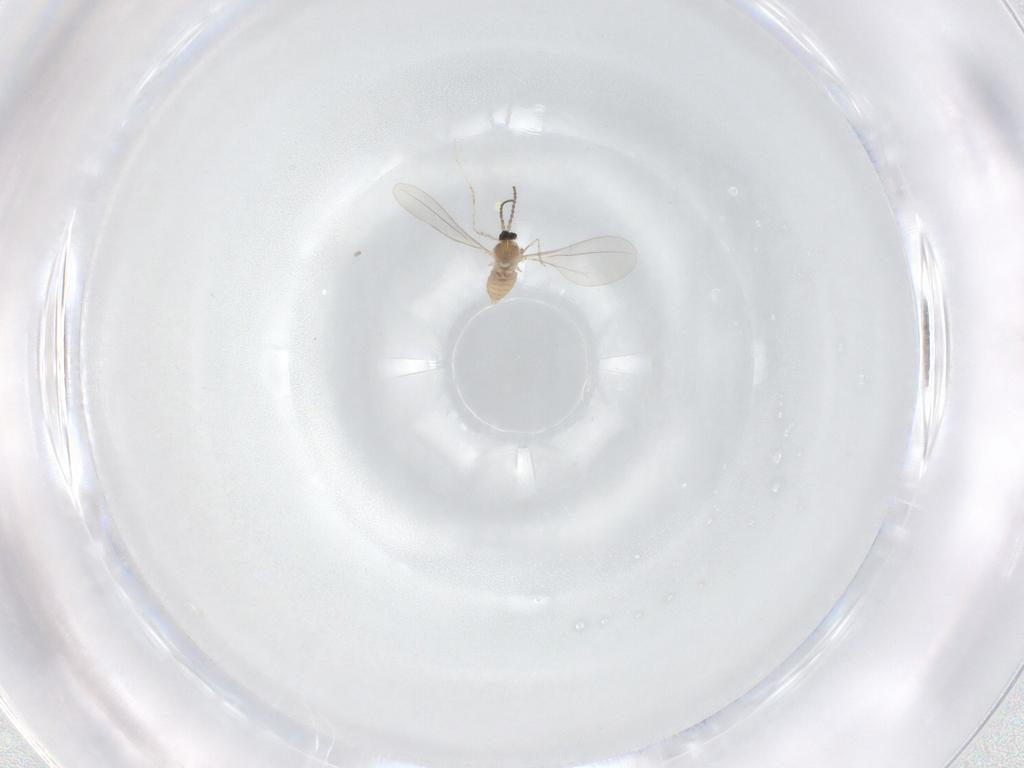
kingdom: Animalia
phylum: Arthropoda
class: Insecta
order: Diptera
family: Cecidomyiidae
